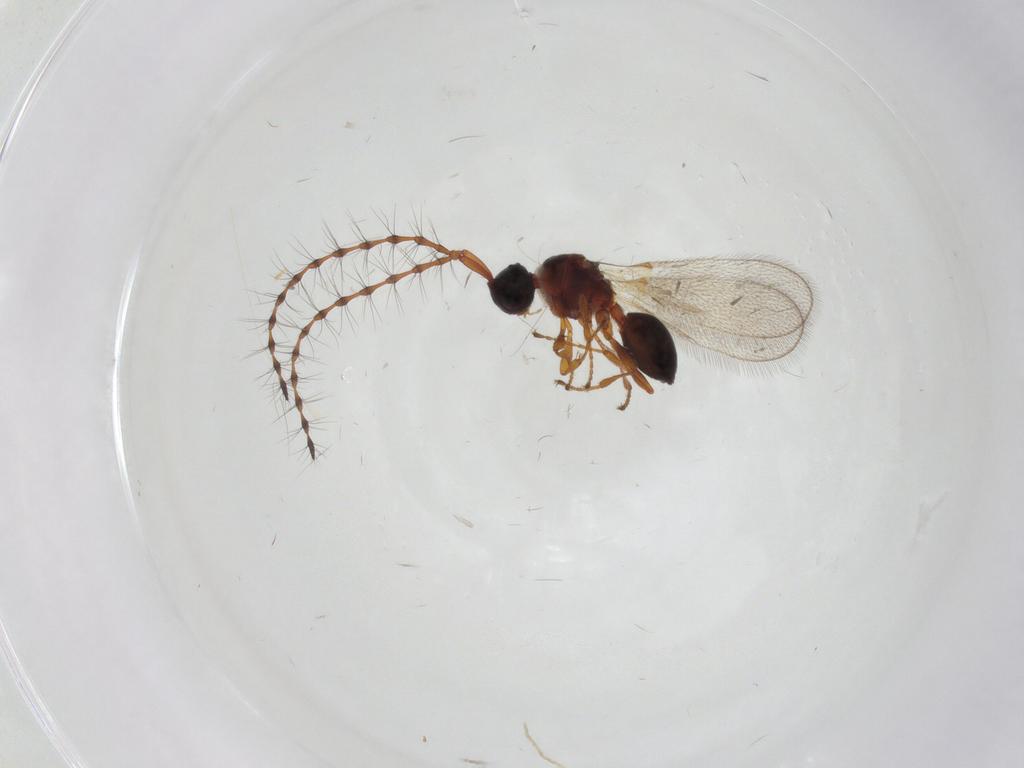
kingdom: Animalia
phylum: Arthropoda
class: Insecta
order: Hymenoptera
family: Diapriidae
